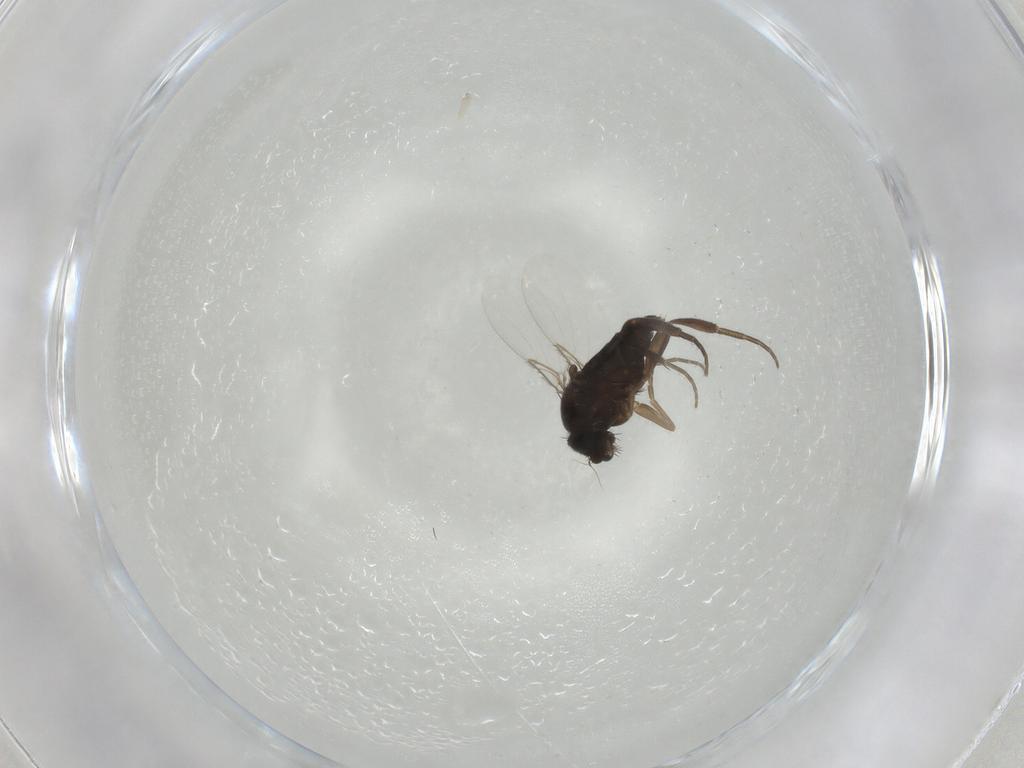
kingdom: Animalia
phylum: Arthropoda
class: Insecta
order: Diptera
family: Phoridae
